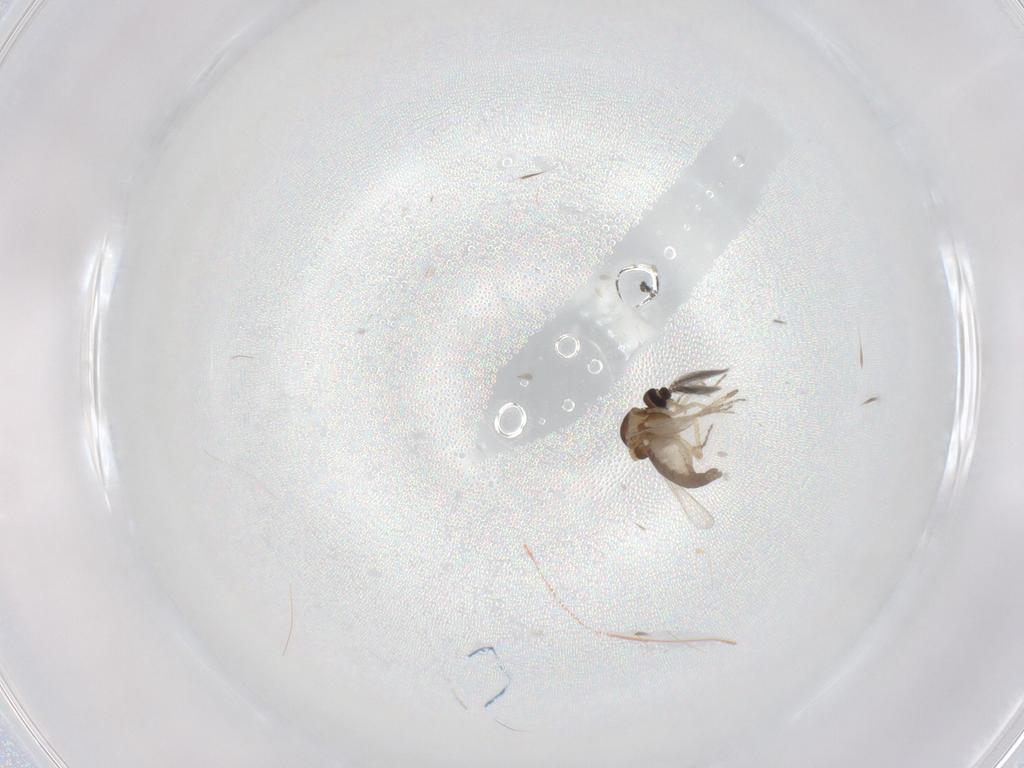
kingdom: Animalia
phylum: Arthropoda
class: Insecta
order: Diptera
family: Ceratopogonidae
